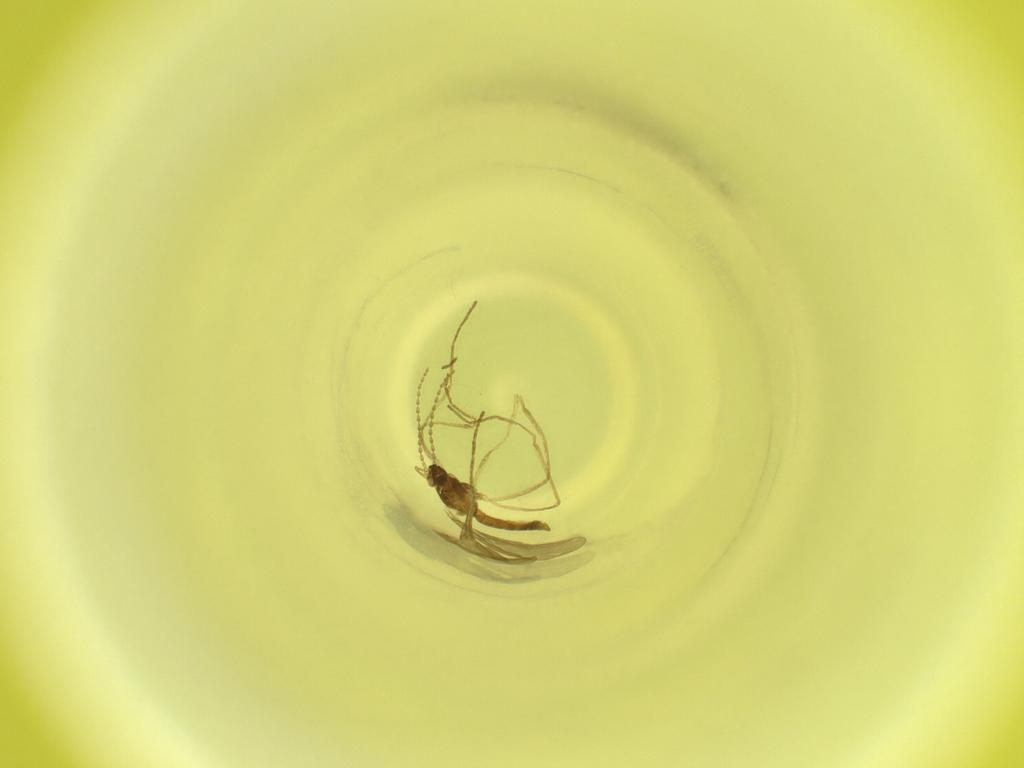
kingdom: Animalia
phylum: Arthropoda
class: Insecta
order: Diptera
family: Cecidomyiidae
